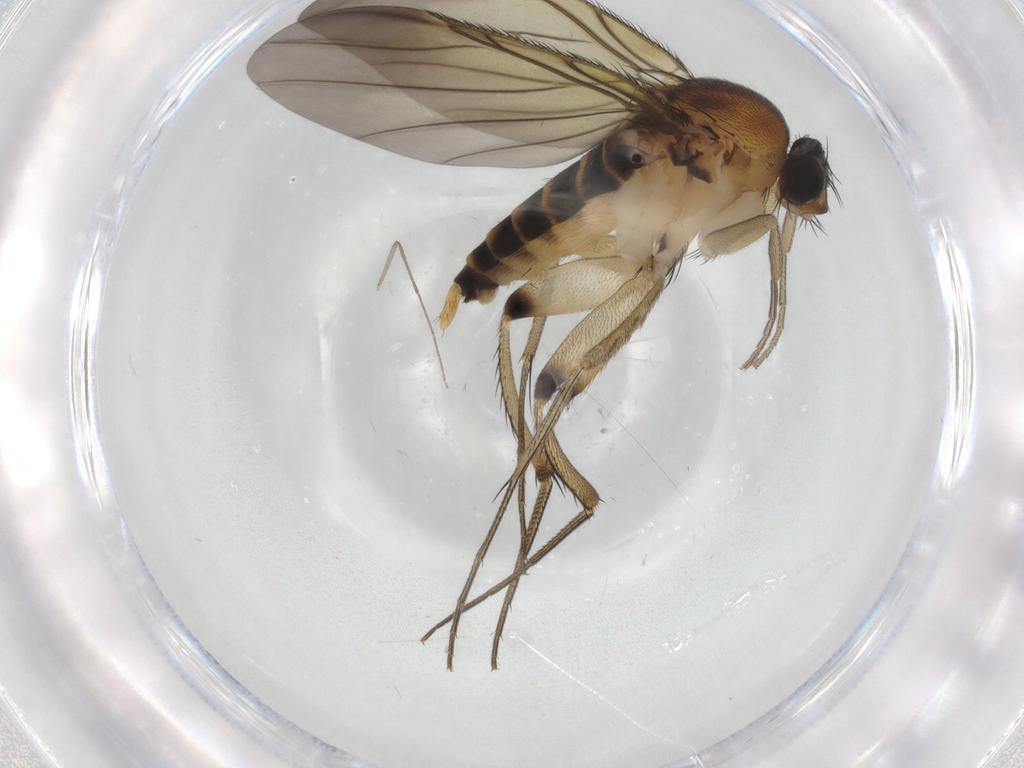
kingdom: Animalia
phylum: Arthropoda
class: Insecta
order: Diptera
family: Phoridae
